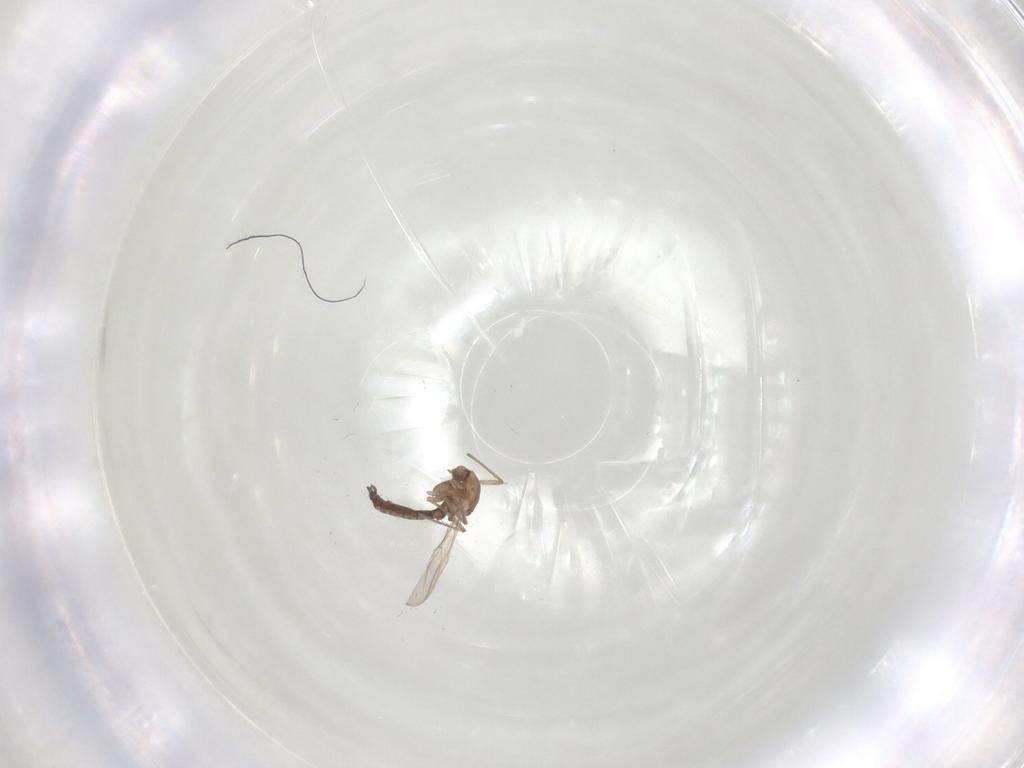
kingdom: Animalia
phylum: Arthropoda
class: Insecta
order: Diptera
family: Chironomidae
